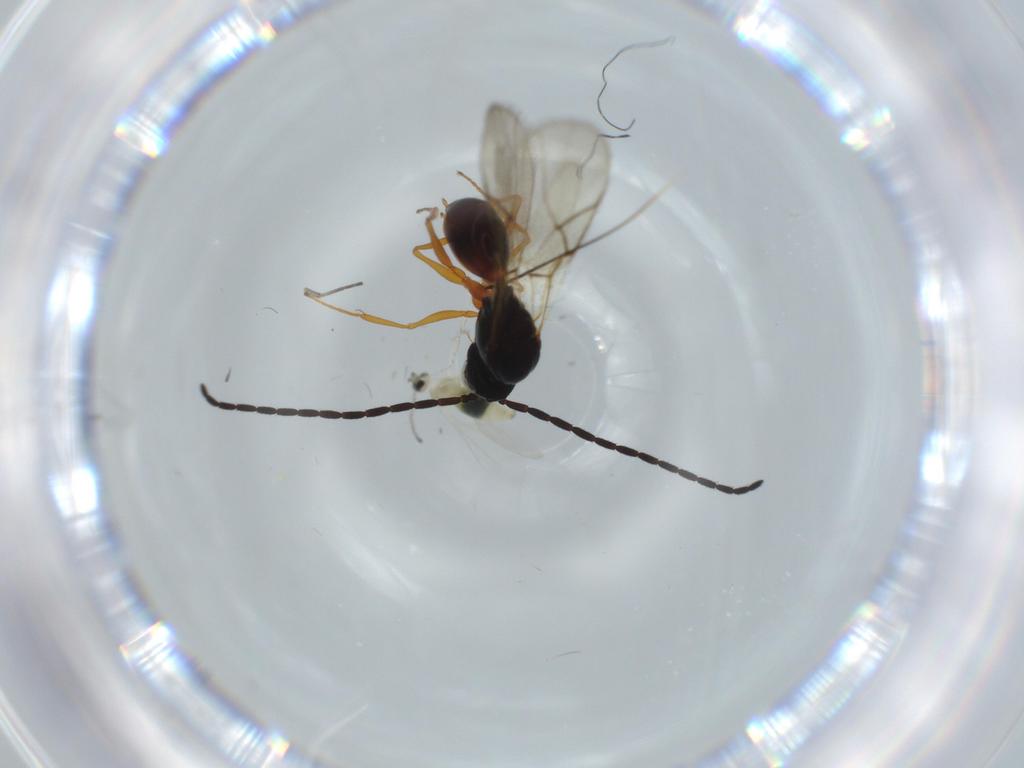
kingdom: Animalia
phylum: Arthropoda
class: Insecta
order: Hymenoptera
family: Figitidae
